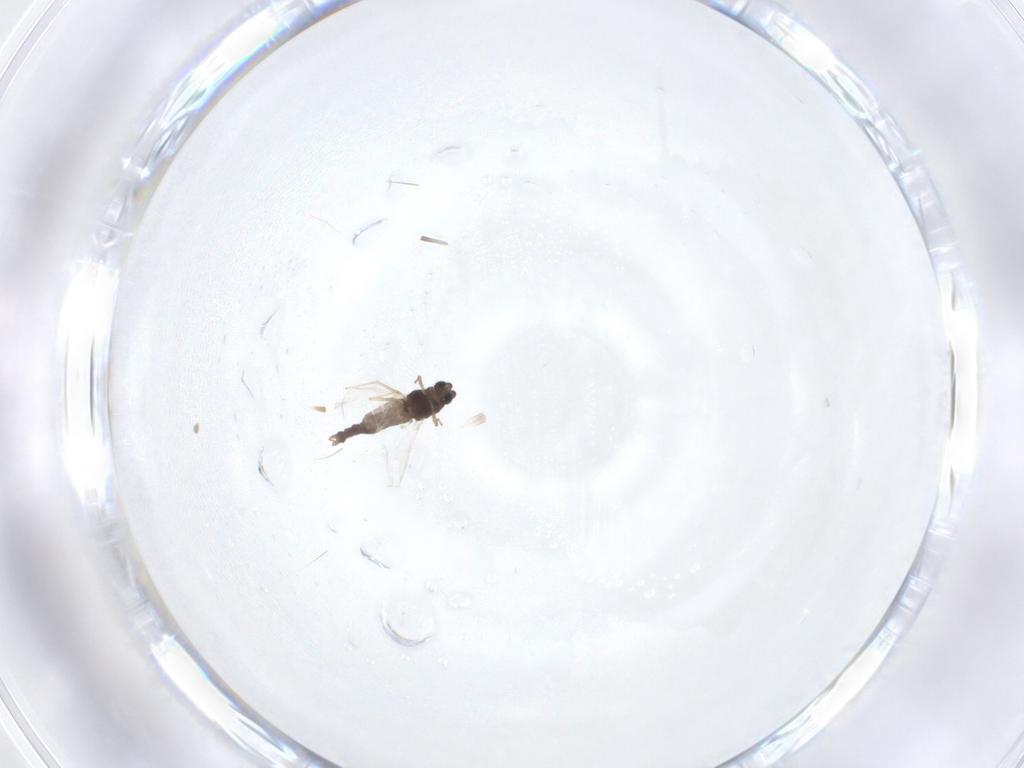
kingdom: Animalia
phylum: Arthropoda
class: Insecta
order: Diptera
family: Chironomidae
